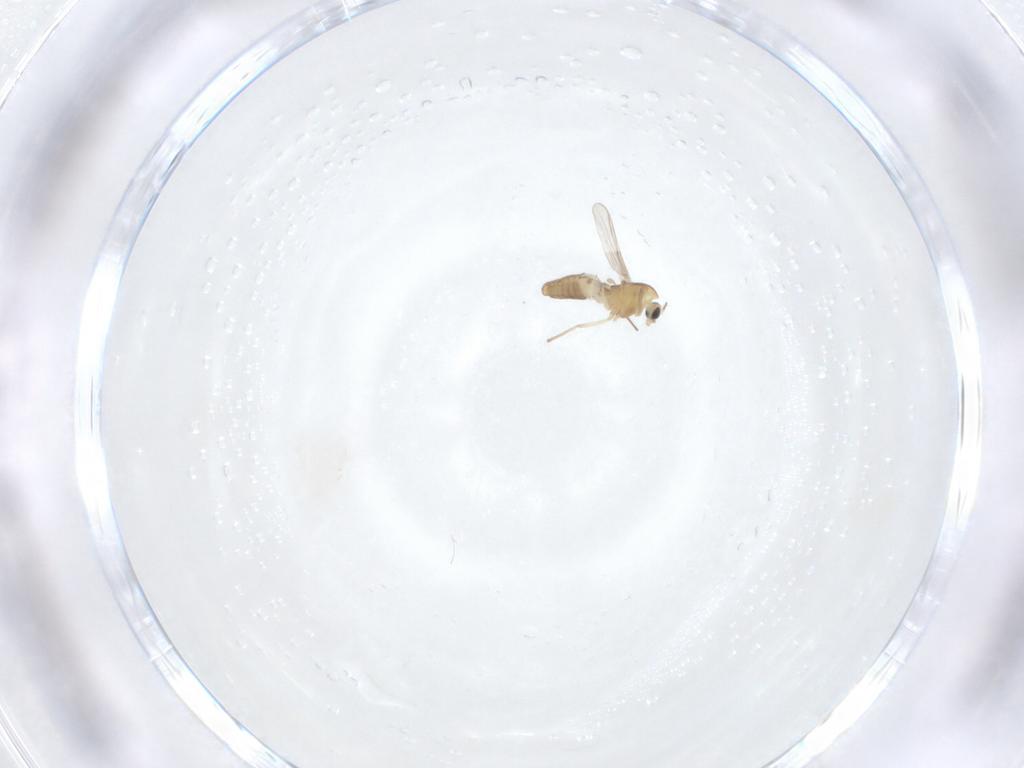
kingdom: Animalia
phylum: Arthropoda
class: Insecta
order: Diptera
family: Chironomidae
